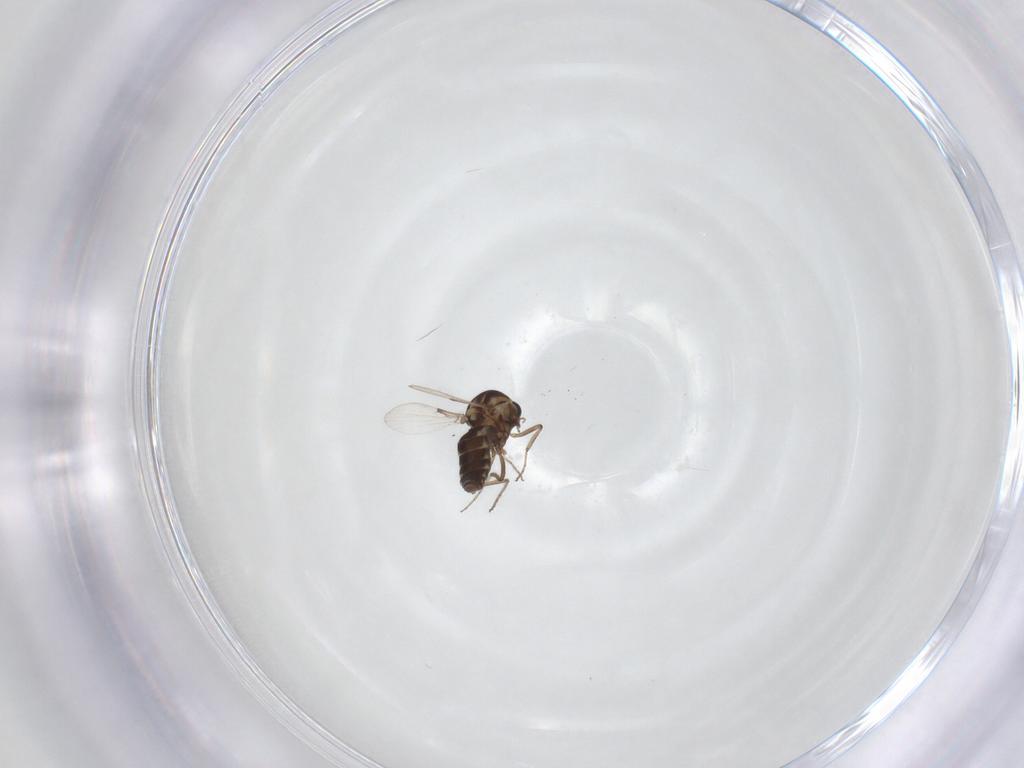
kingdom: Animalia
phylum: Arthropoda
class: Insecta
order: Diptera
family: Ceratopogonidae
